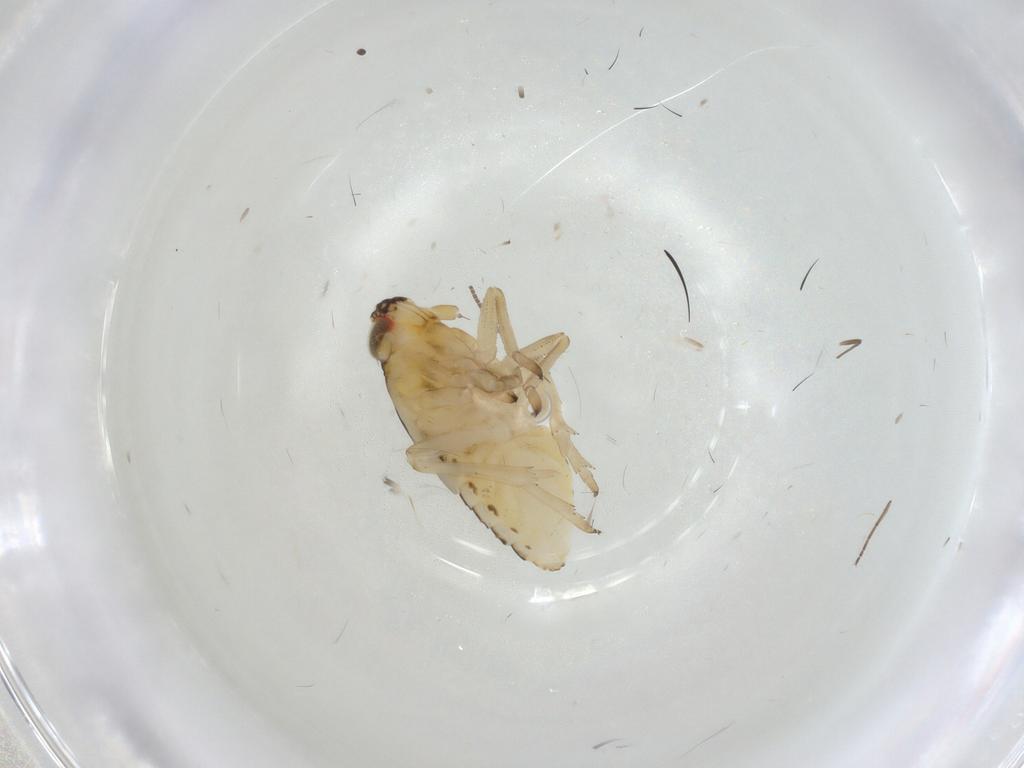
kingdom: Animalia
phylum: Arthropoda
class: Insecta
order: Hemiptera
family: Delphacidae
